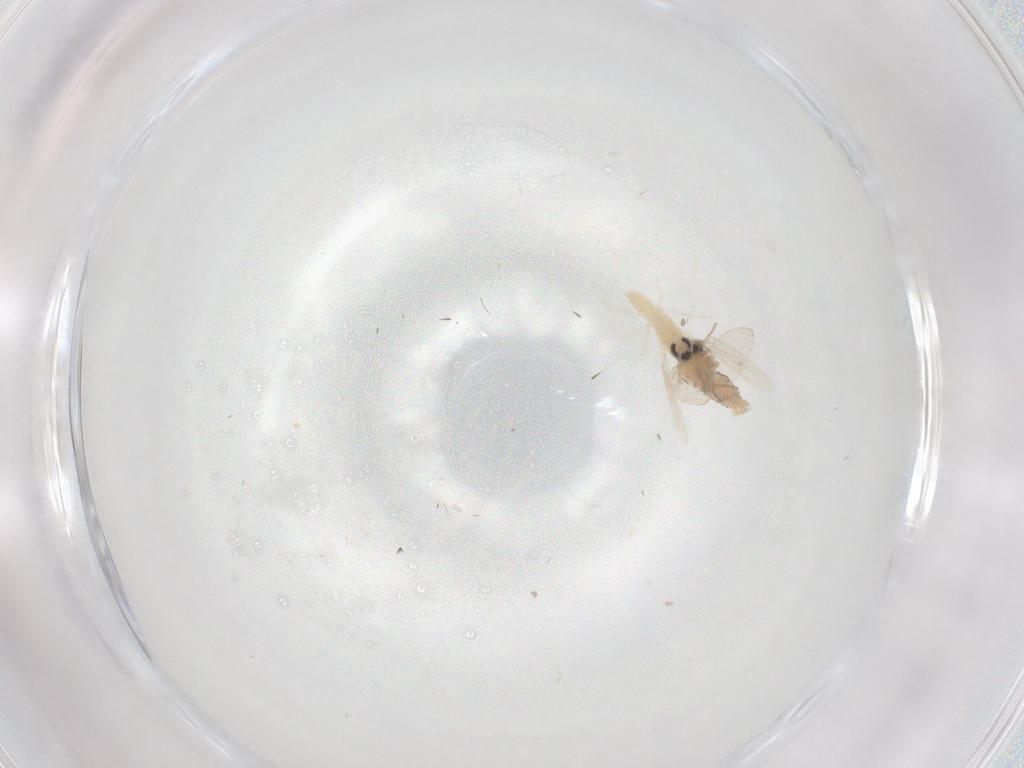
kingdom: Animalia
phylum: Arthropoda
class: Insecta
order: Diptera
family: Cecidomyiidae
